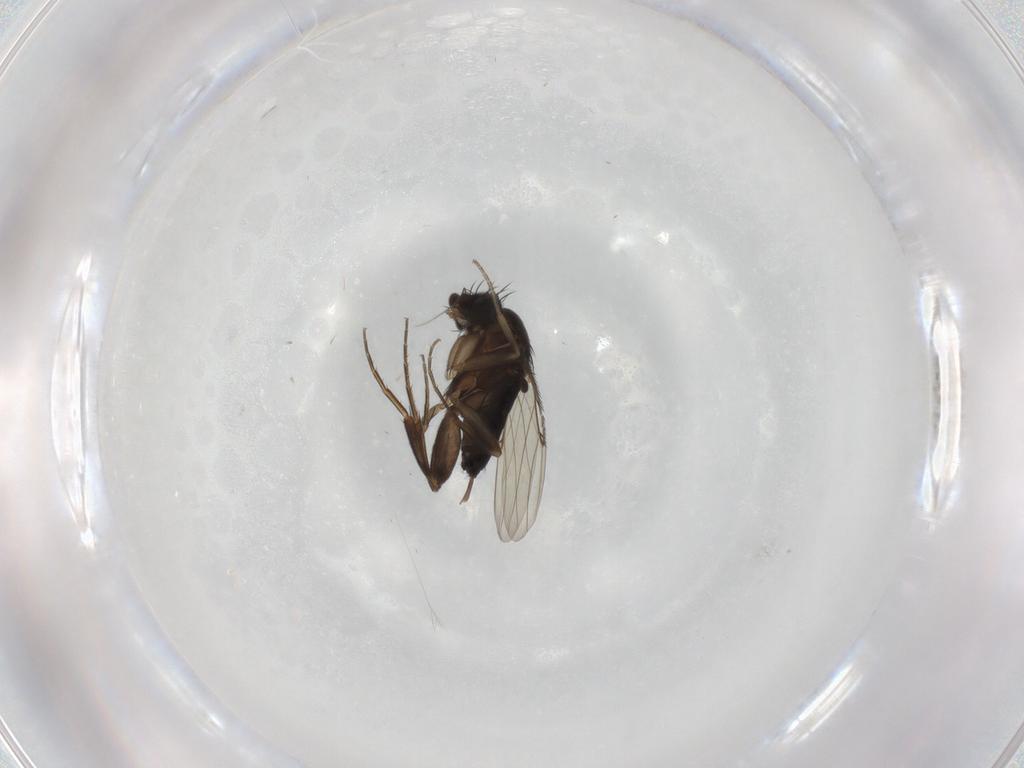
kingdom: Animalia
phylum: Arthropoda
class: Insecta
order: Diptera
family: Phoridae
